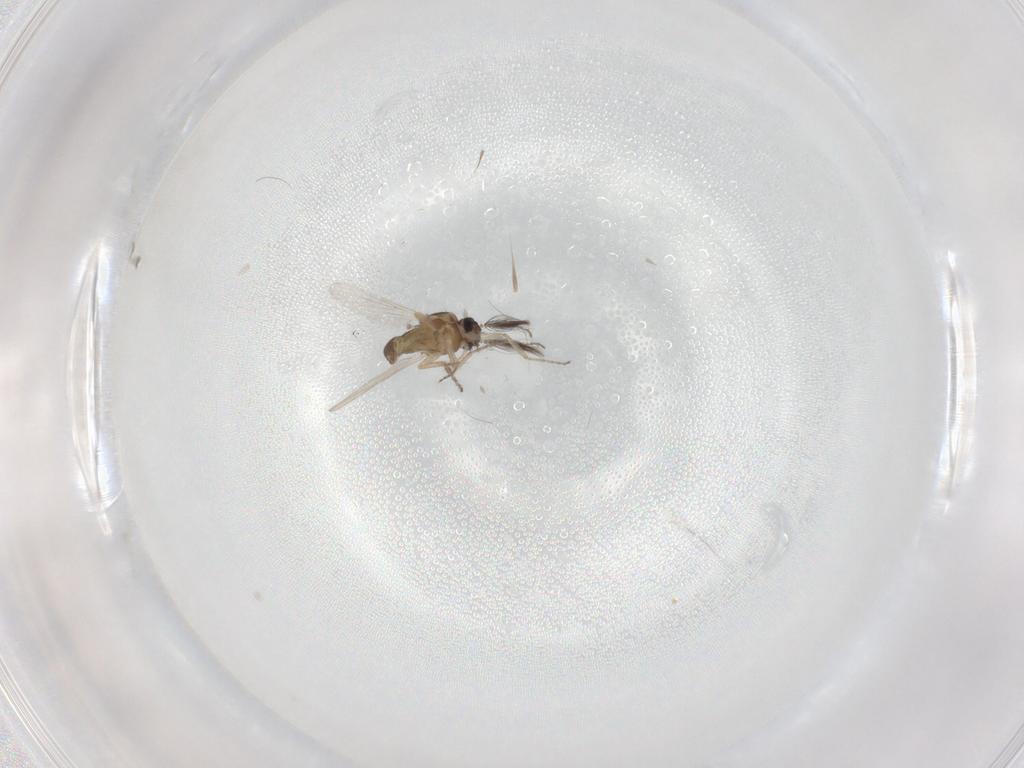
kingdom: Animalia
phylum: Arthropoda
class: Insecta
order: Diptera
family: Ceratopogonidae
